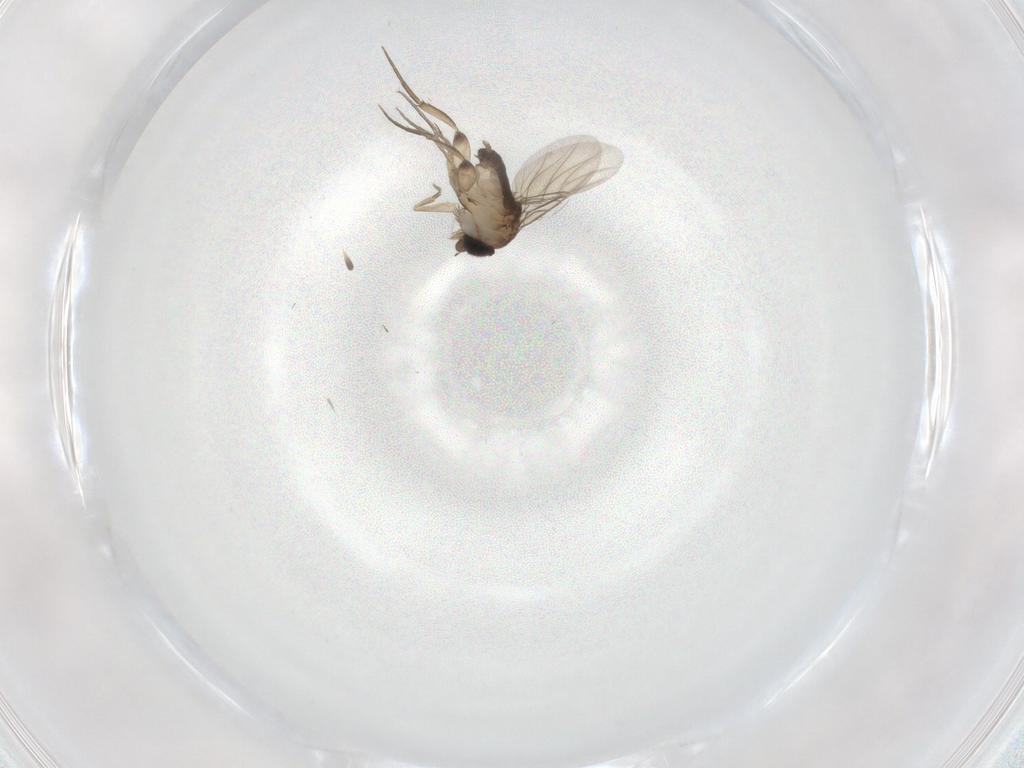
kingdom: Animalia
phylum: Arthropoda
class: Insecta
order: Diptera
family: Phoridae
